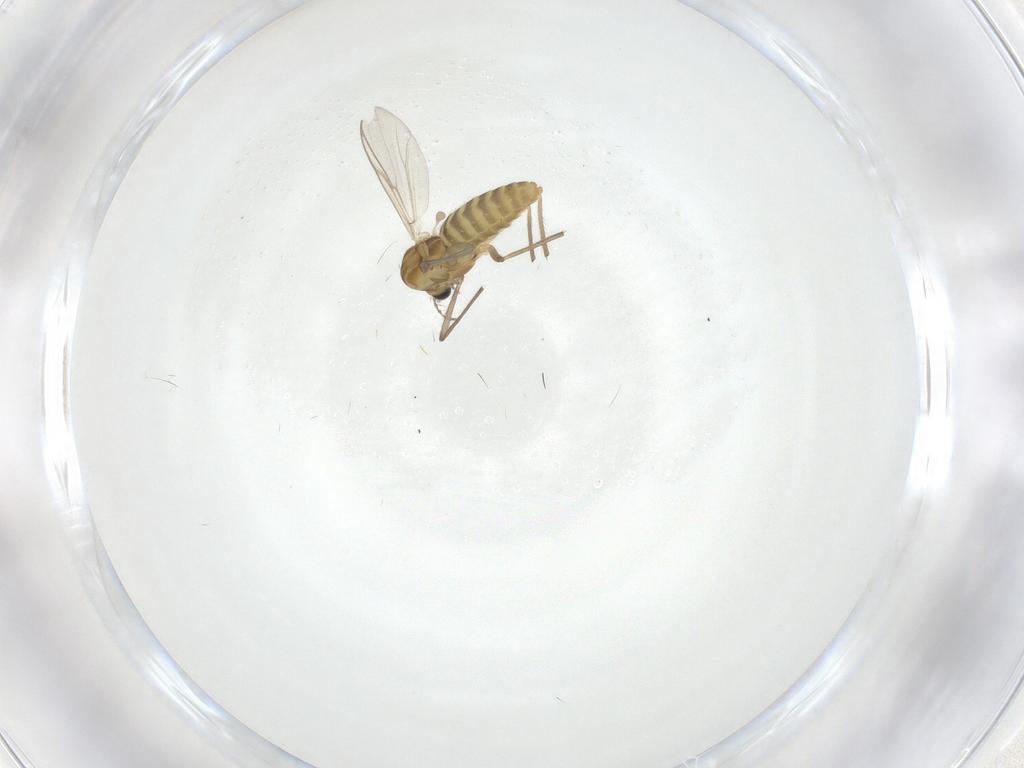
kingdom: Animalia
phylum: Arthropoda
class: Insecta
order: Diptera
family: Chironomidae
